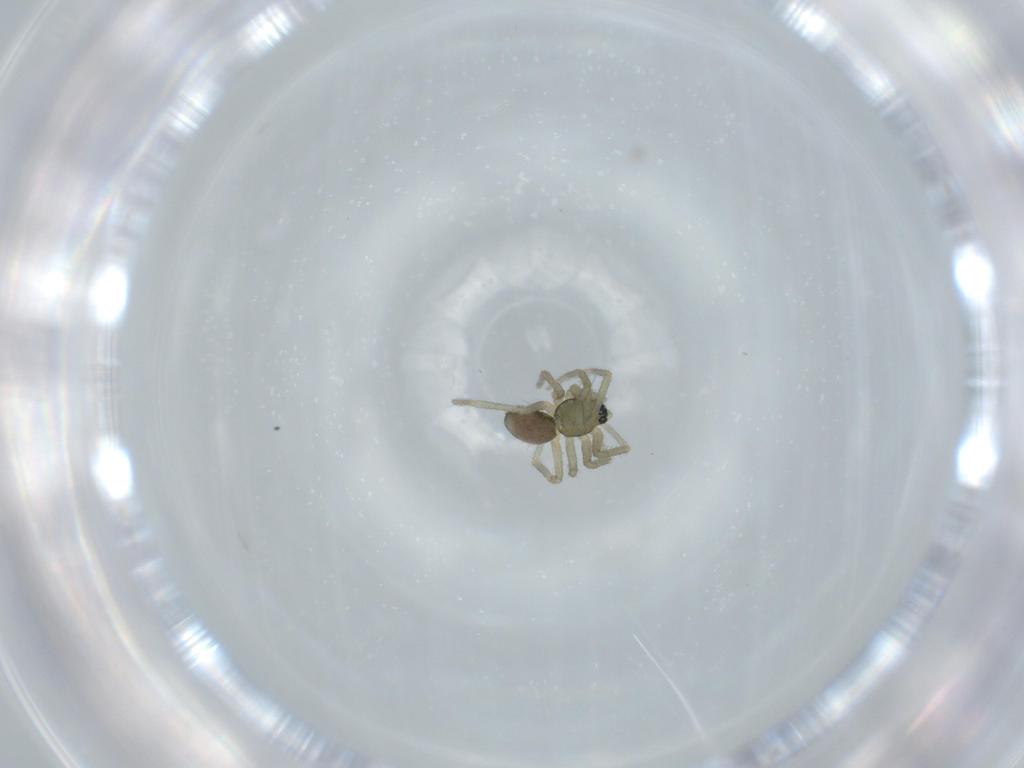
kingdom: Animalia
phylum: Arthropoda
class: Arachnida
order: Araneae
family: Linyphiidae
